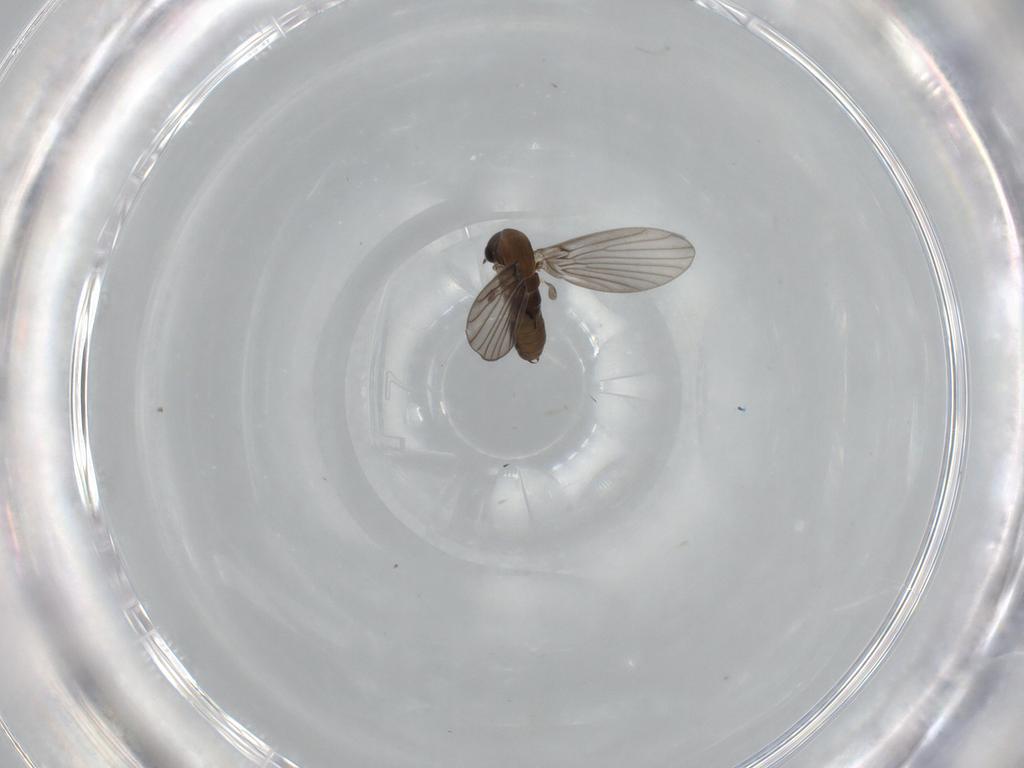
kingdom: Animalia
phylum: Arthropoda
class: Insecta
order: Diptera
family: Psychodidae
